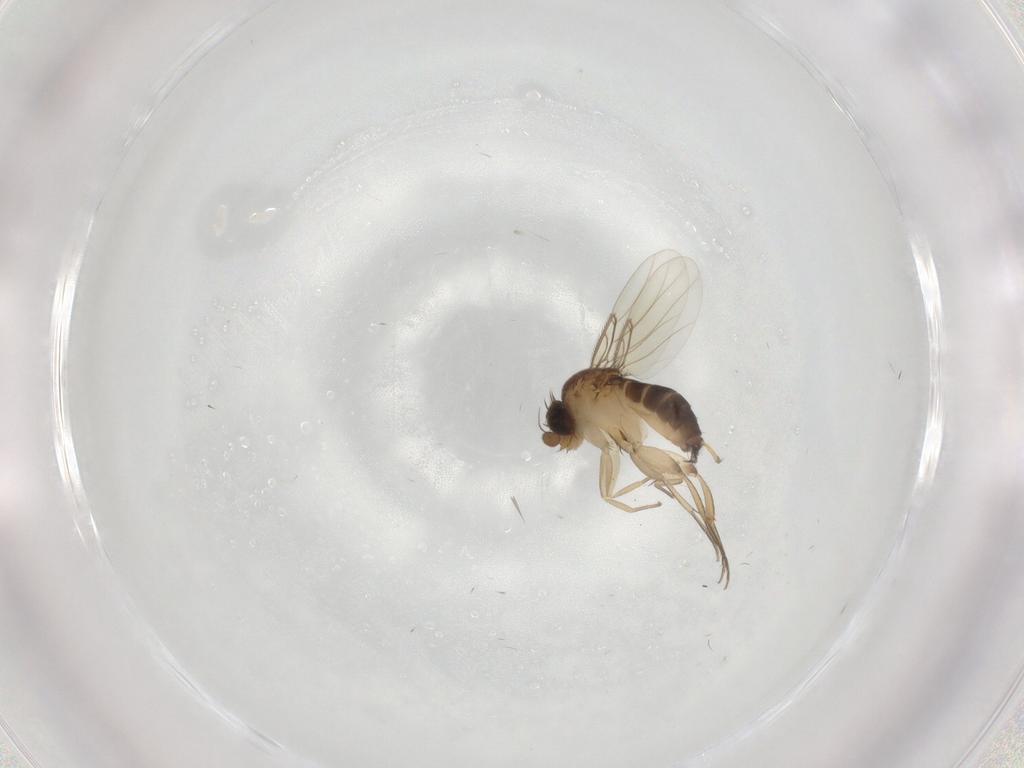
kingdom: Animalia
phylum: Arthropoda
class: Insecta
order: Diptera
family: Phoridae
